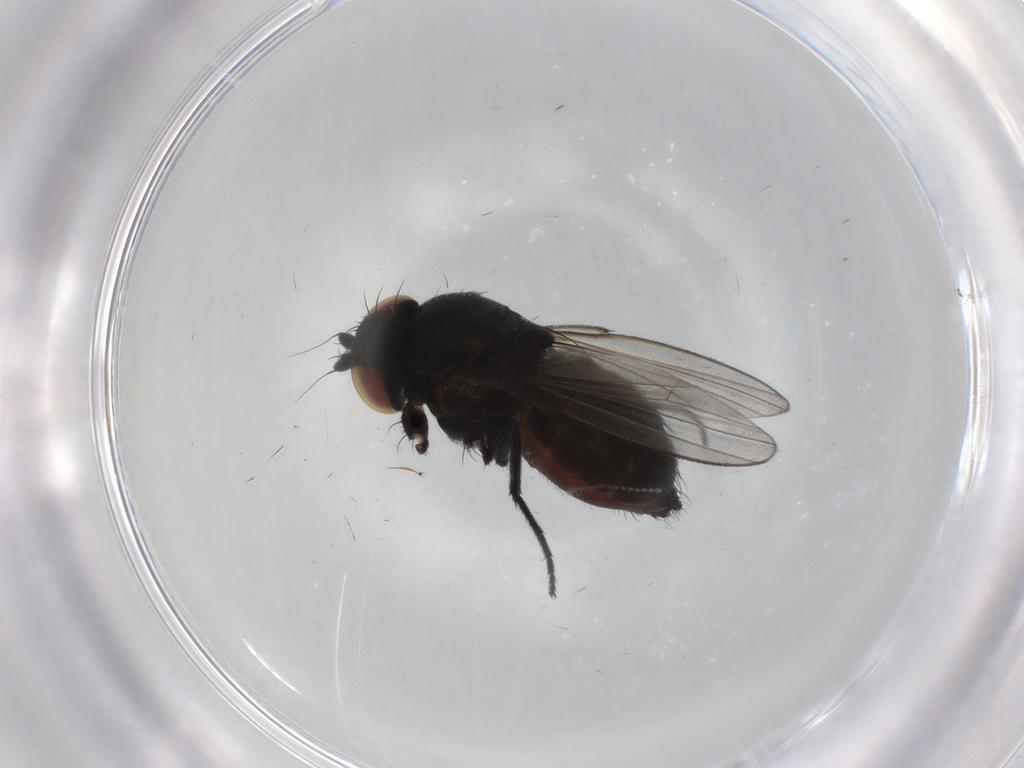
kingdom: Animalia
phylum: Arthropoda
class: Insecta
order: Diptera
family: Milichiidae
